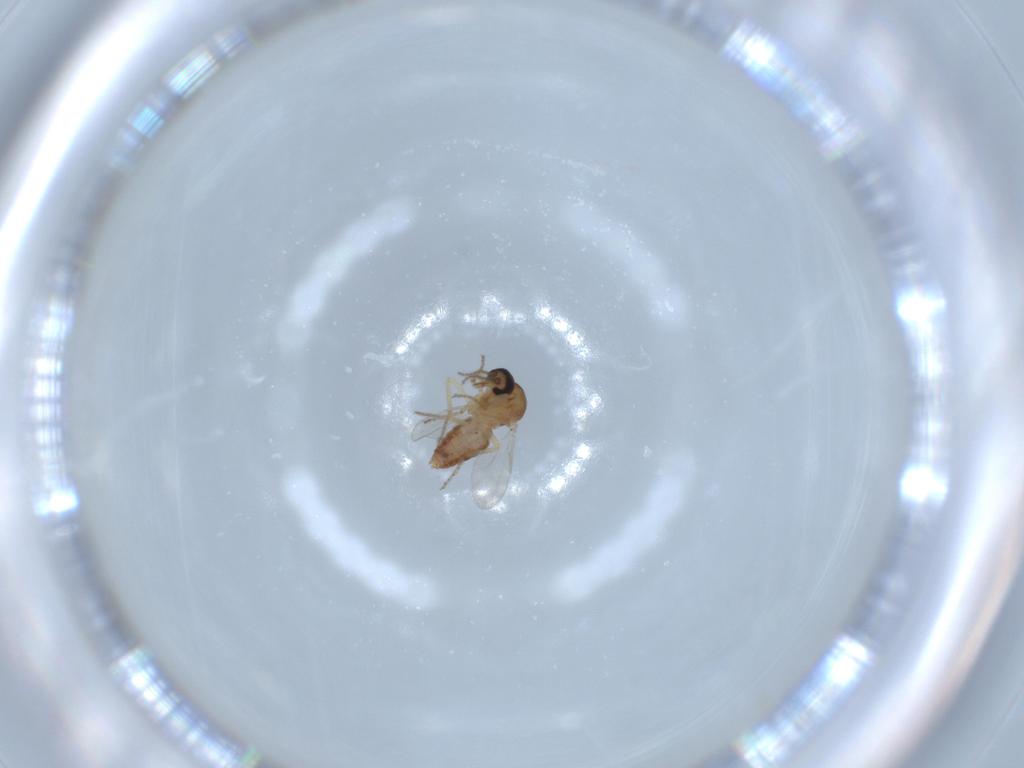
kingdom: Animalia
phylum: Arthropoda
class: Insecta
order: Diptera
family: Ceratopogonidae
